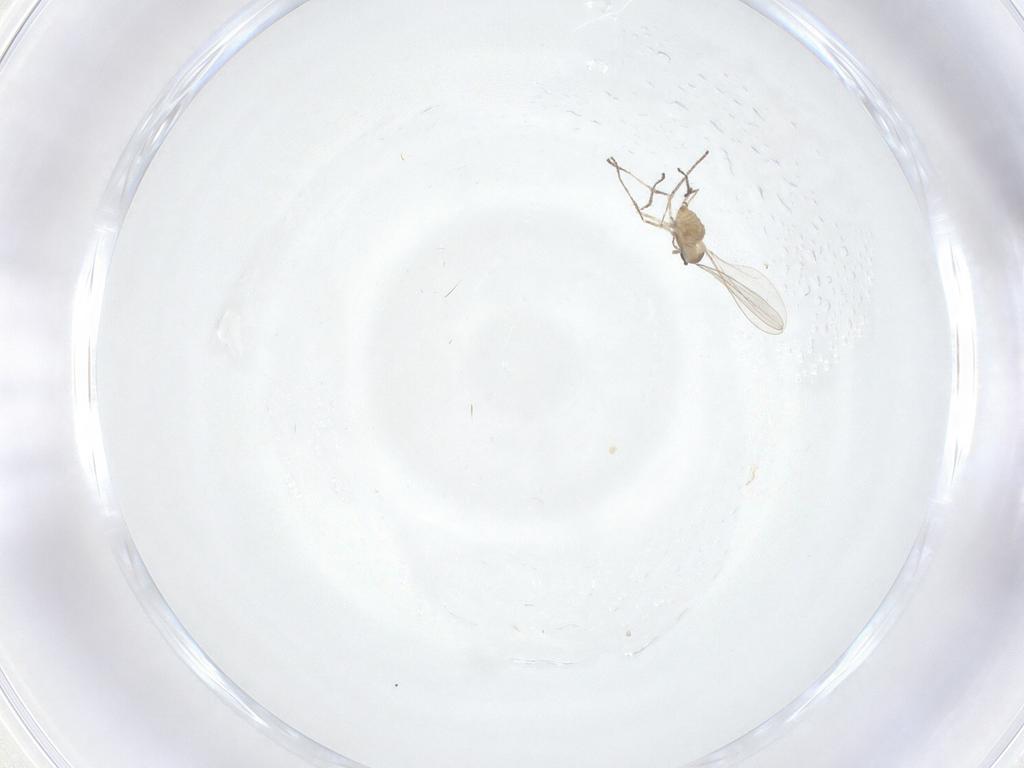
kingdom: Animalia
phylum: Arthropoda
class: Insecta
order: Diptera
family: Cecidomyiidae
